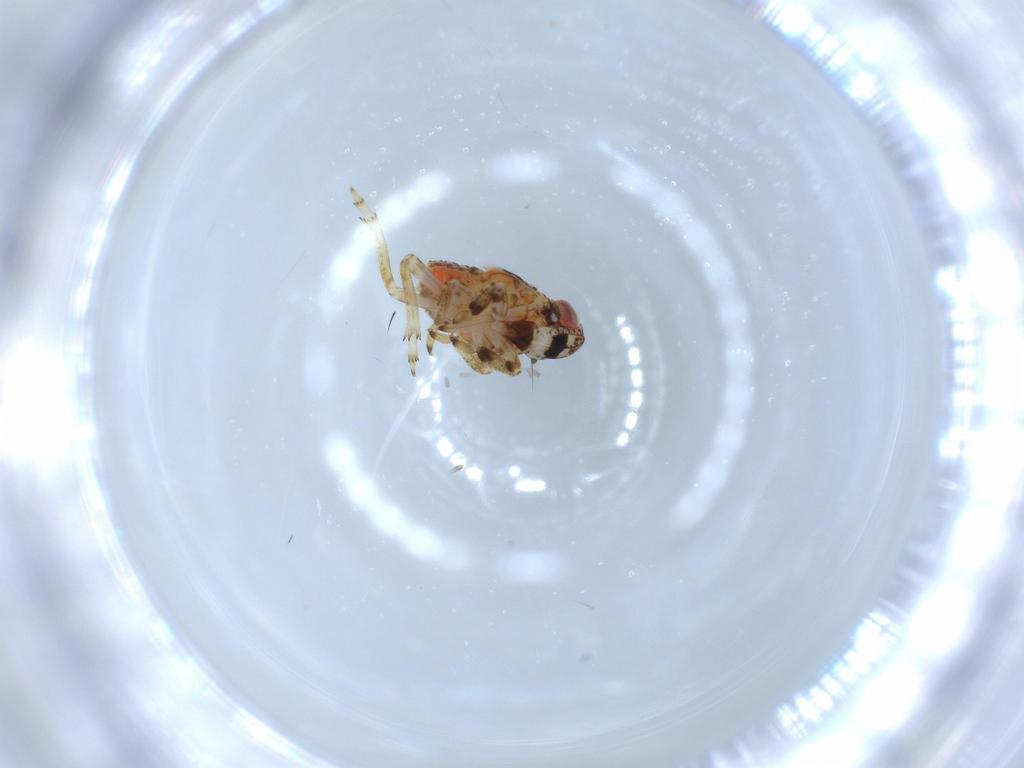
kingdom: Animalia
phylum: Arthropoda
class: Insecta
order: Hemiptera
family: Issidae
